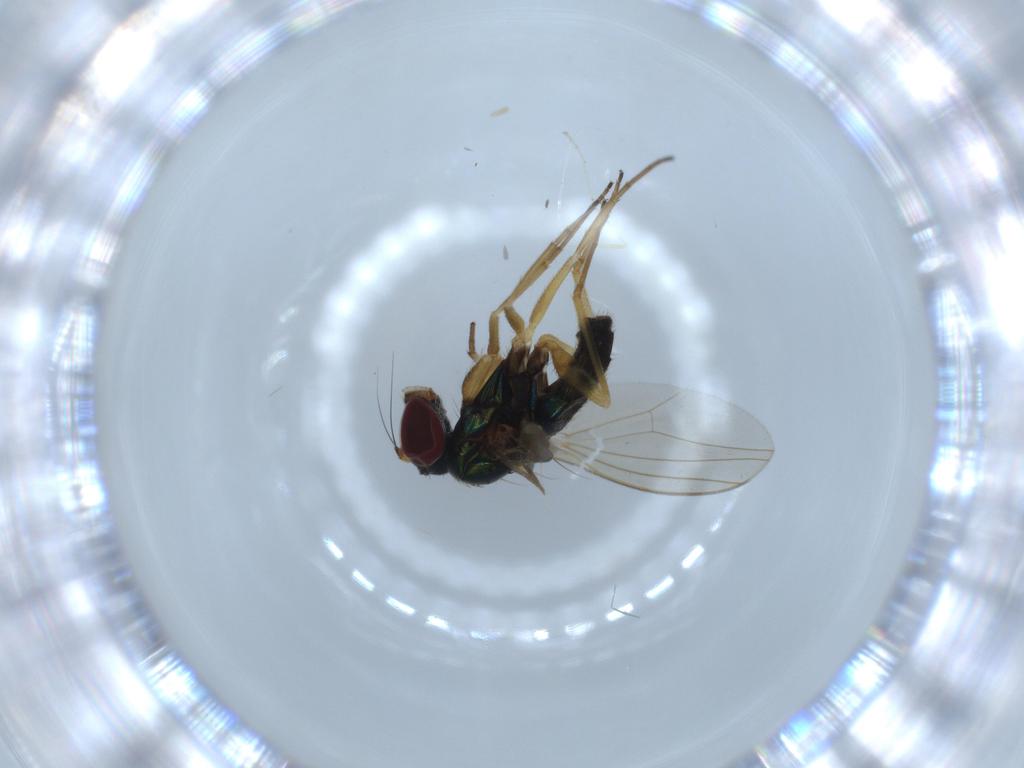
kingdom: Animalia
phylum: Arthropoda
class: Insecta
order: Diptera
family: Dolichopodidae
